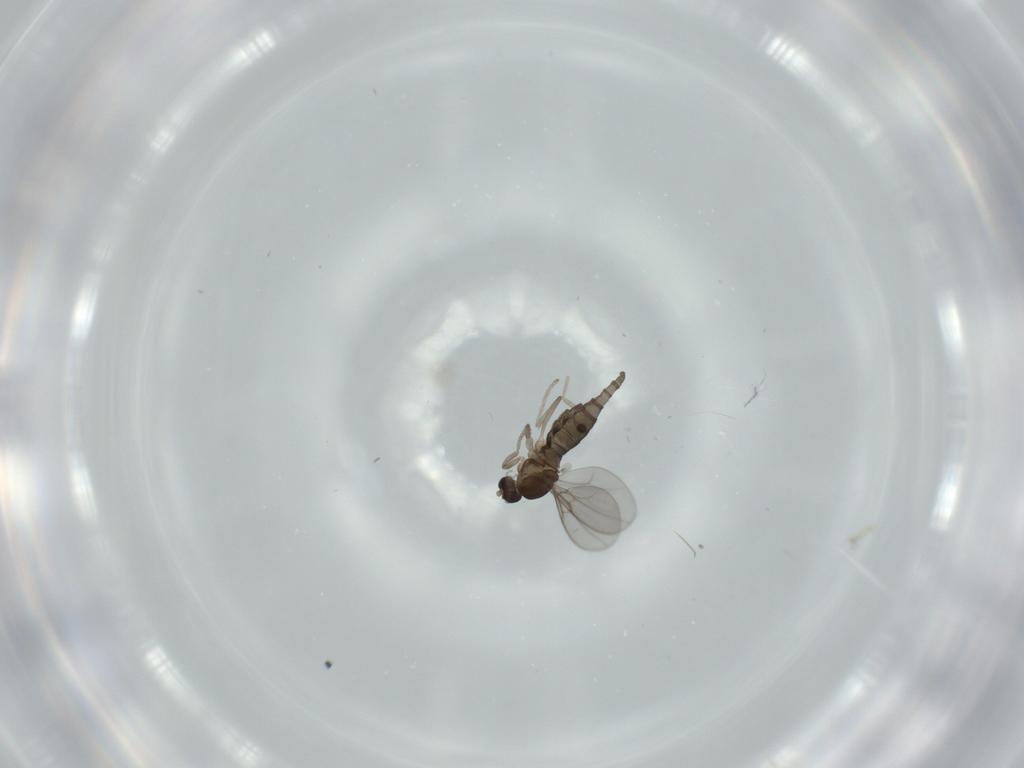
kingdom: Animalia
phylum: Arthropoda
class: Insecta
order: Diptera
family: Cecidomyiidae
